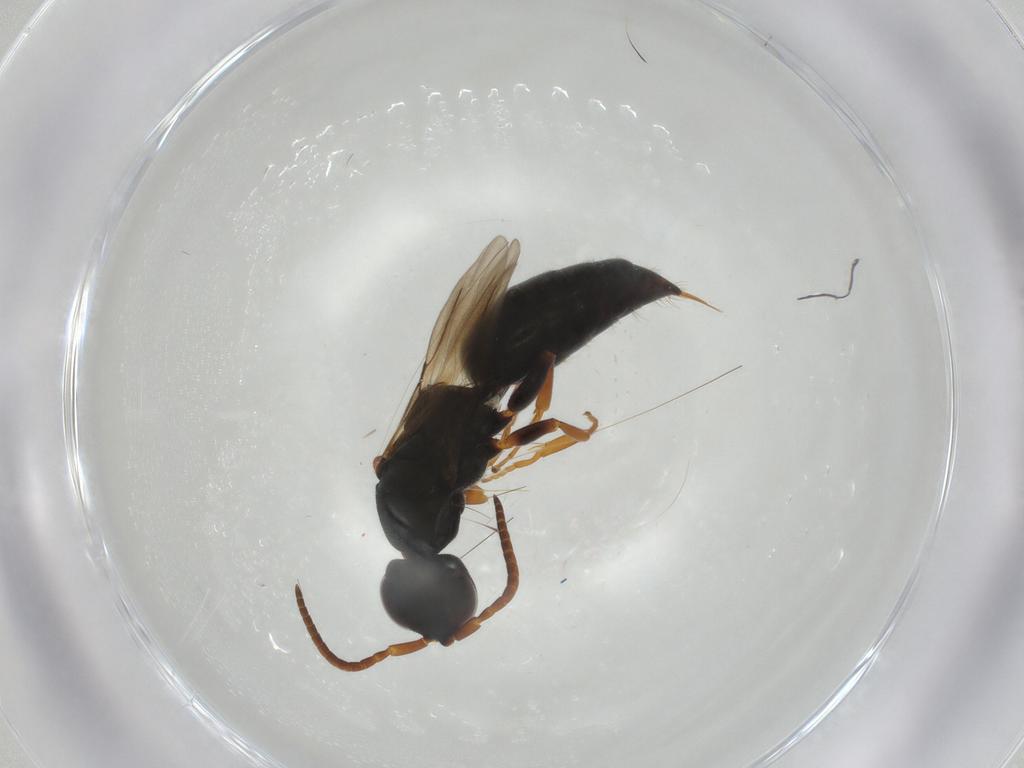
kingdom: Animalia
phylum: Arthropoda
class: Insecta
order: Hymenoptera
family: Bethylidae
